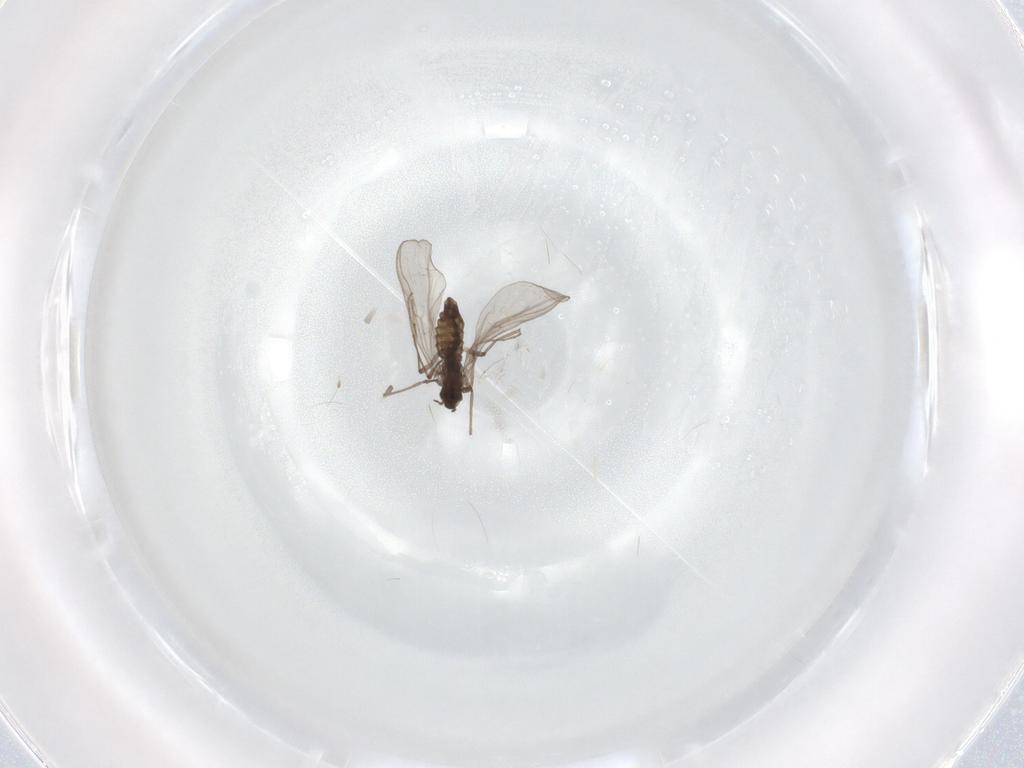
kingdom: Animalia
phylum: Arthropoda
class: Insecta
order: Diptera
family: Chironomidae
